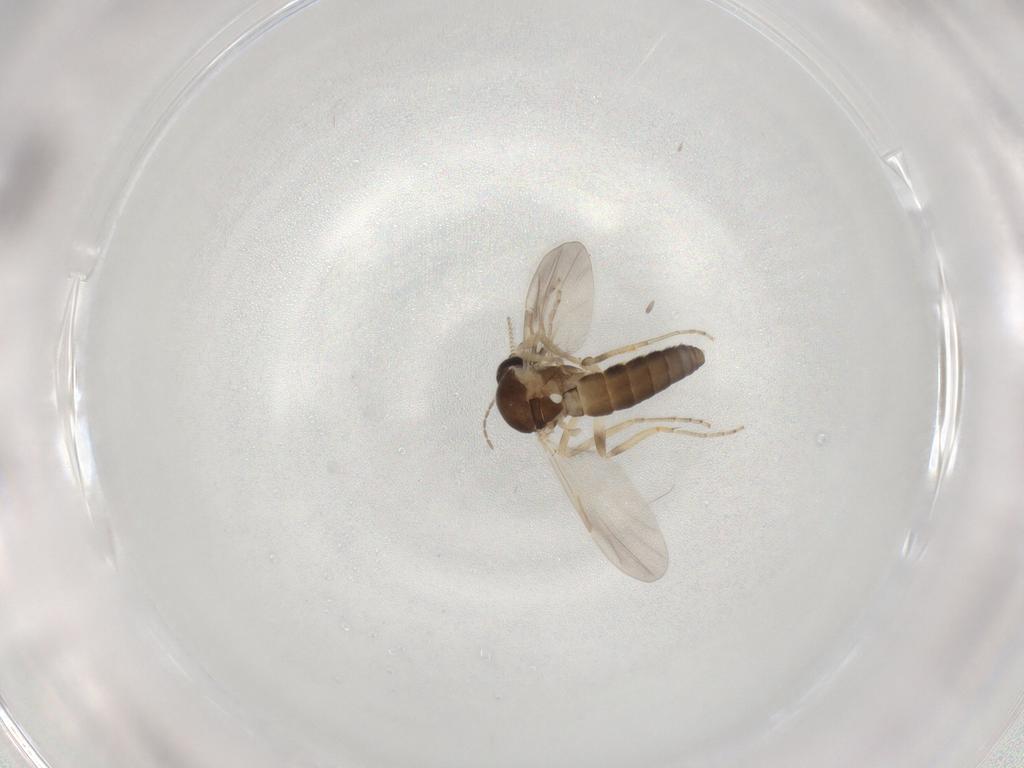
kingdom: Animalia
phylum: Arthropoda
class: Insecta
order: Diptera
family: Ceratopogonidae
